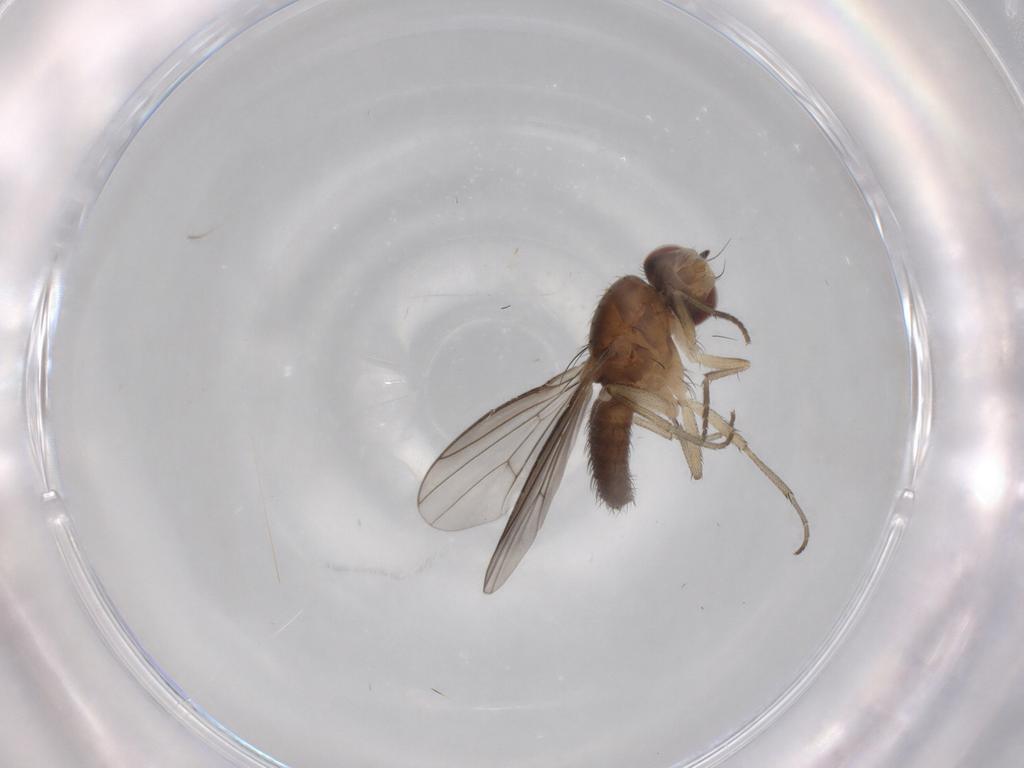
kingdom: Animalia
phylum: Arthropoda
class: Insecta
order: Diptera
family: Heleomyzidae
